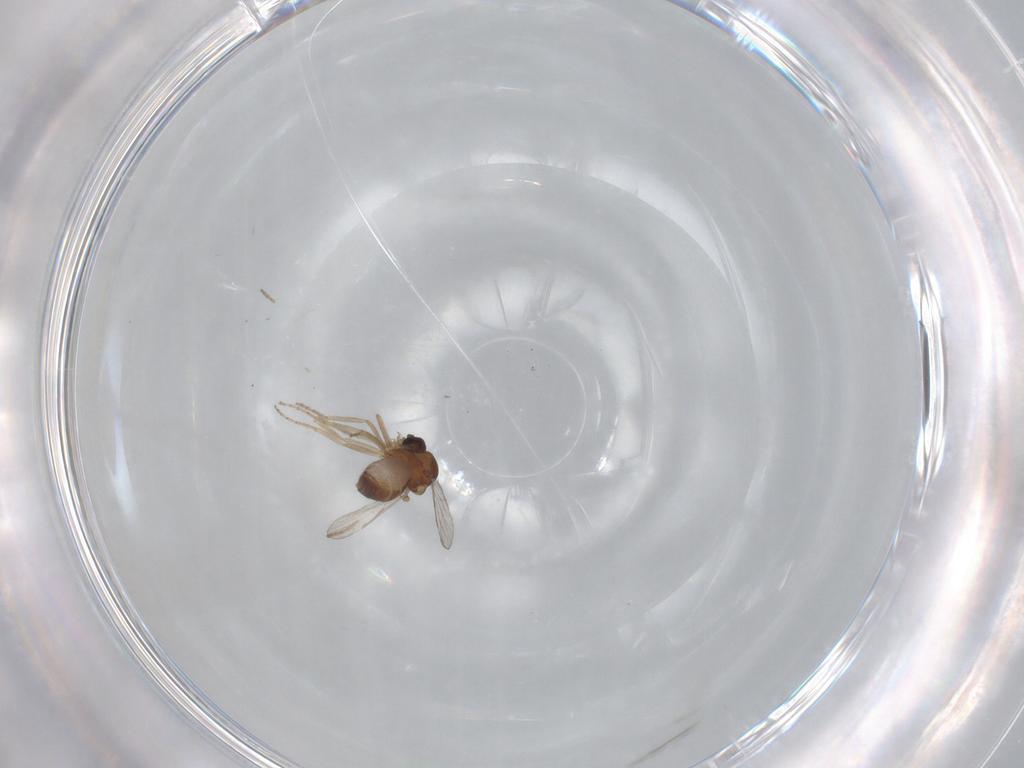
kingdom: Animalia
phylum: Arthropoda
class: Insecta
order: Diptera
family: Ceratopogonidae
